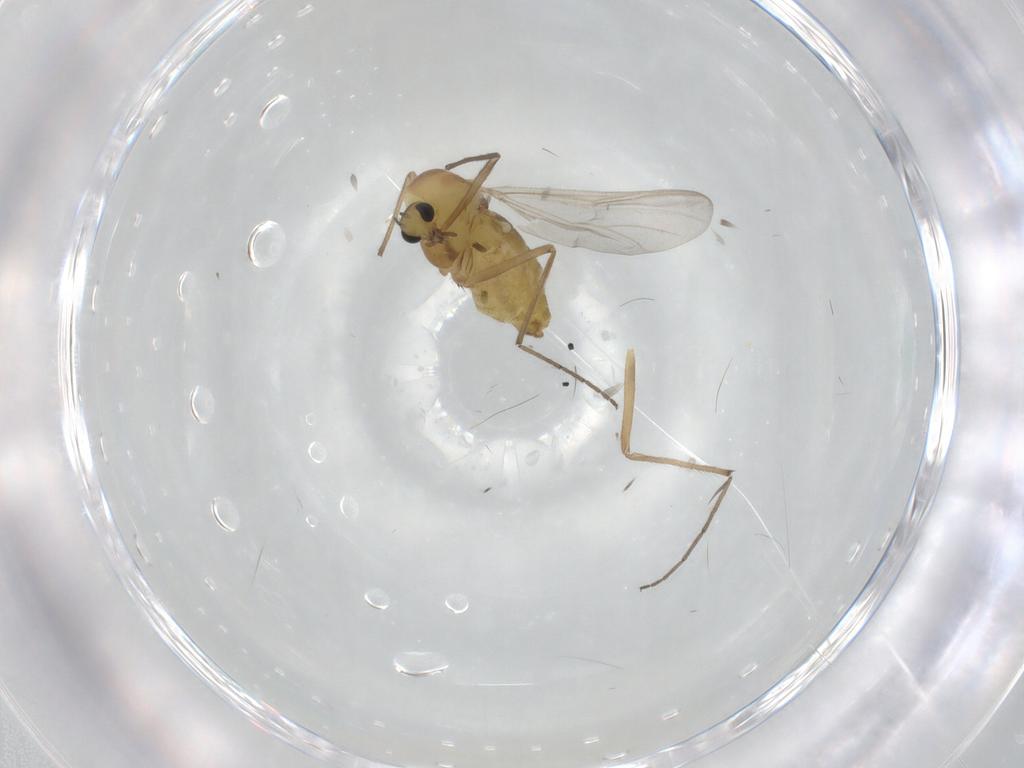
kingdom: Animalia
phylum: Arthropoda
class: Insecta
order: Diptera
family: Chironomidae
